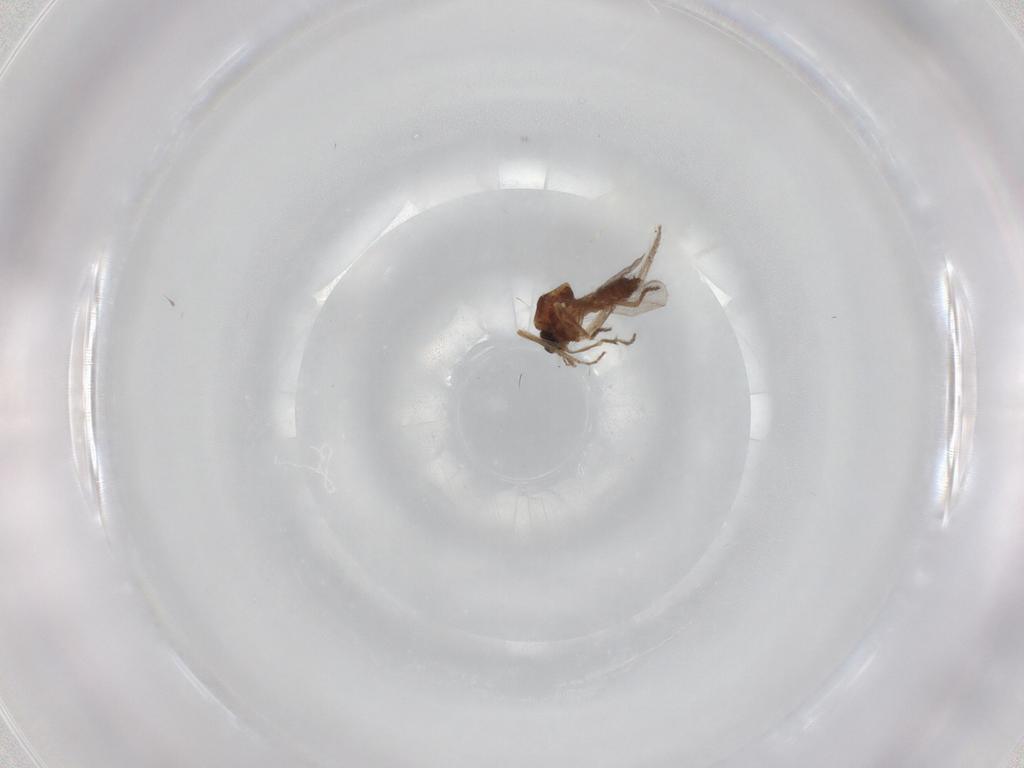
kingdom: Animalia
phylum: Arthropoda
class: Insecta
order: Diptera
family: Ceratopogonidae
